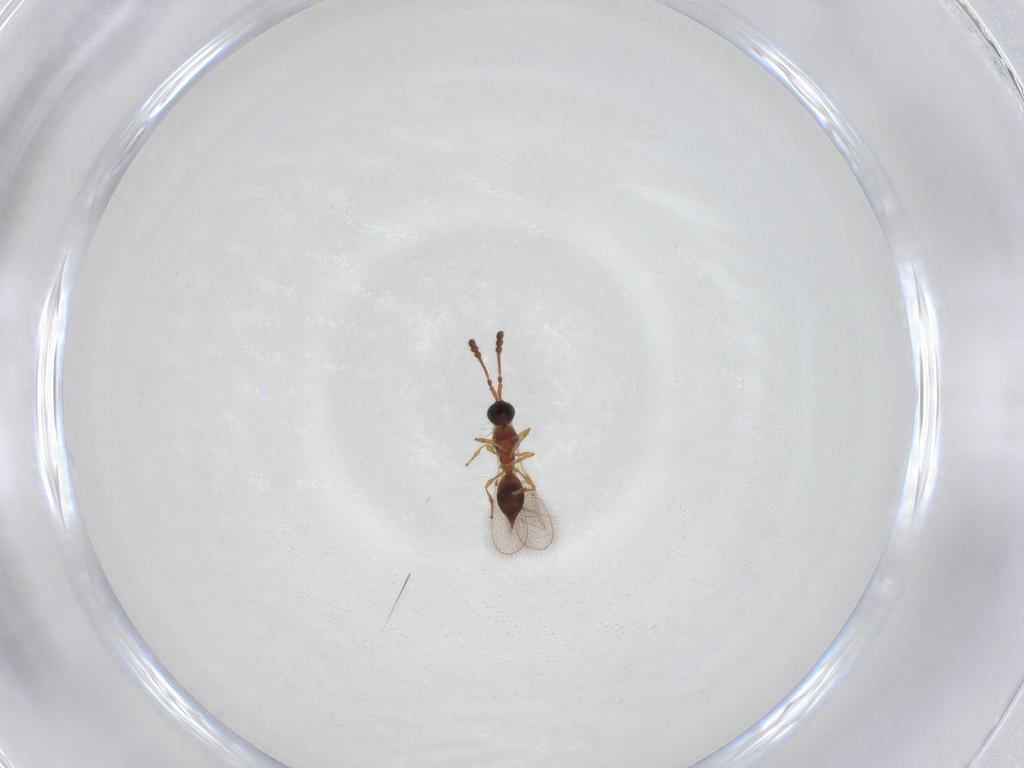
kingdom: Animalia
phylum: Arthropoda
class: Insecta
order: Hymenoptera
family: Diapriidae
